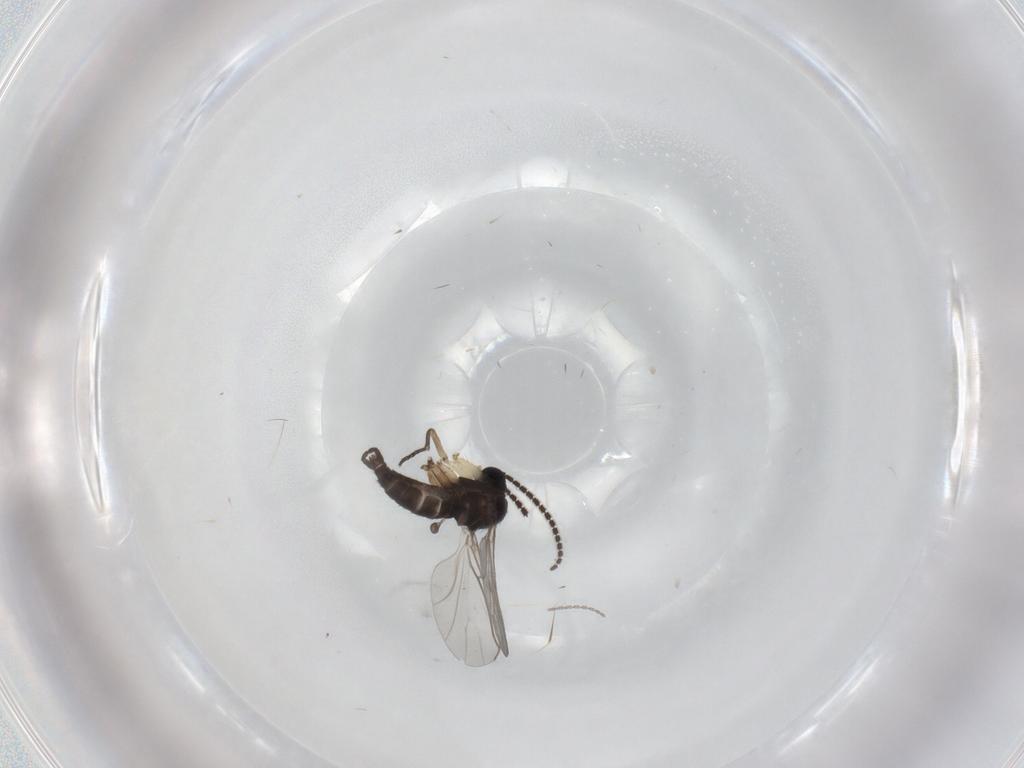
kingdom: Animalia
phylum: Arthropoda
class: Insecta
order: Diptera
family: Sciaridae
